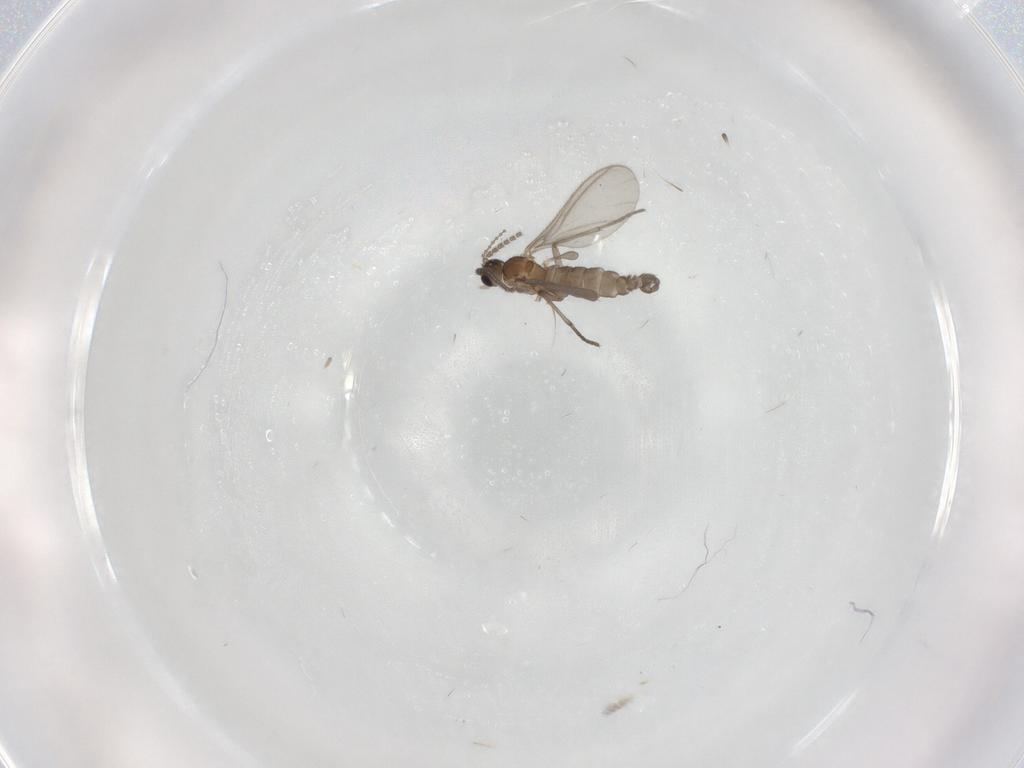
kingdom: Animalia
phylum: Arthropoda
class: Insecta
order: Diptera
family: Sciaridae
